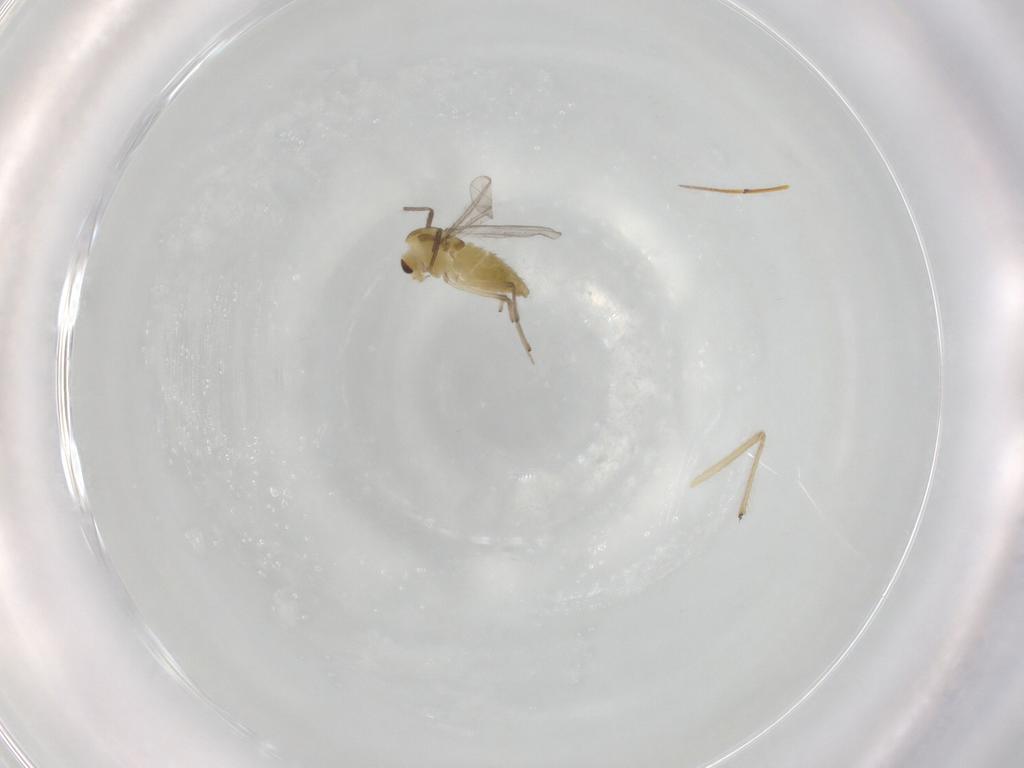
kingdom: Animalia
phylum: Arthropoda
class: Insecta
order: Diptera
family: Chironomidae
